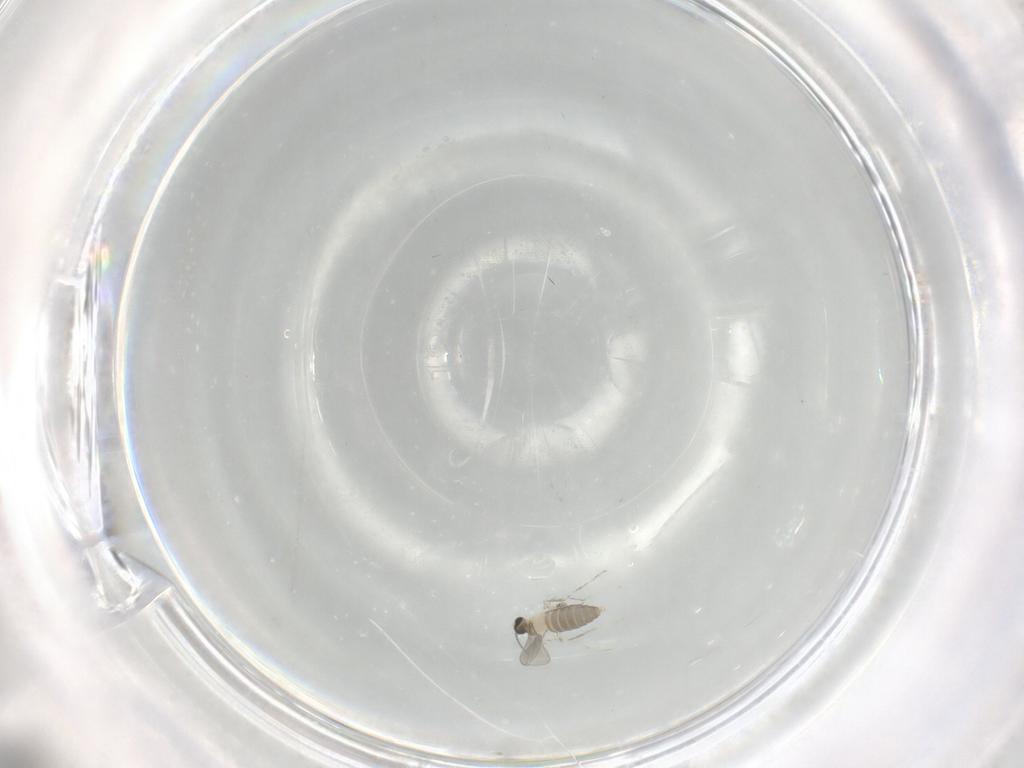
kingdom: Animalia
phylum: Arthropoda
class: Insecta
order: Diptera
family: Cecidomyiidae
